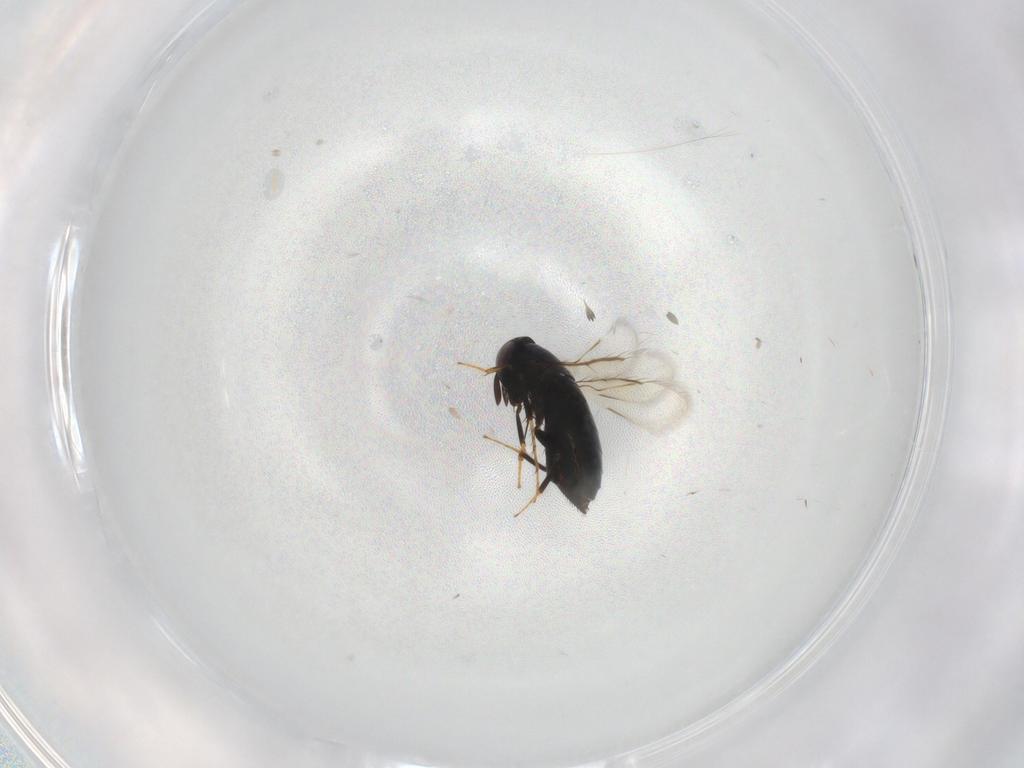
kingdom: Animalia
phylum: Arthropoda
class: Insecta
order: Hymenoptera
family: Signiphoridae
